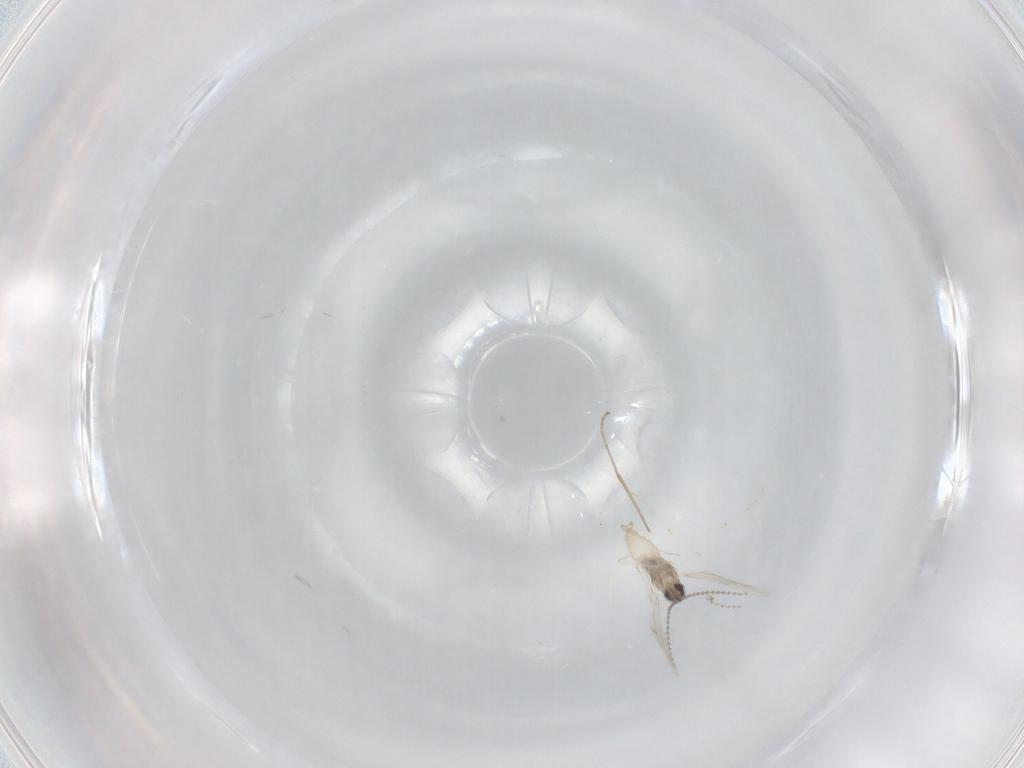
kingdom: Animalia
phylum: Arthropoda
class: Insecta
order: Diptera
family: Cecidomyiidae
